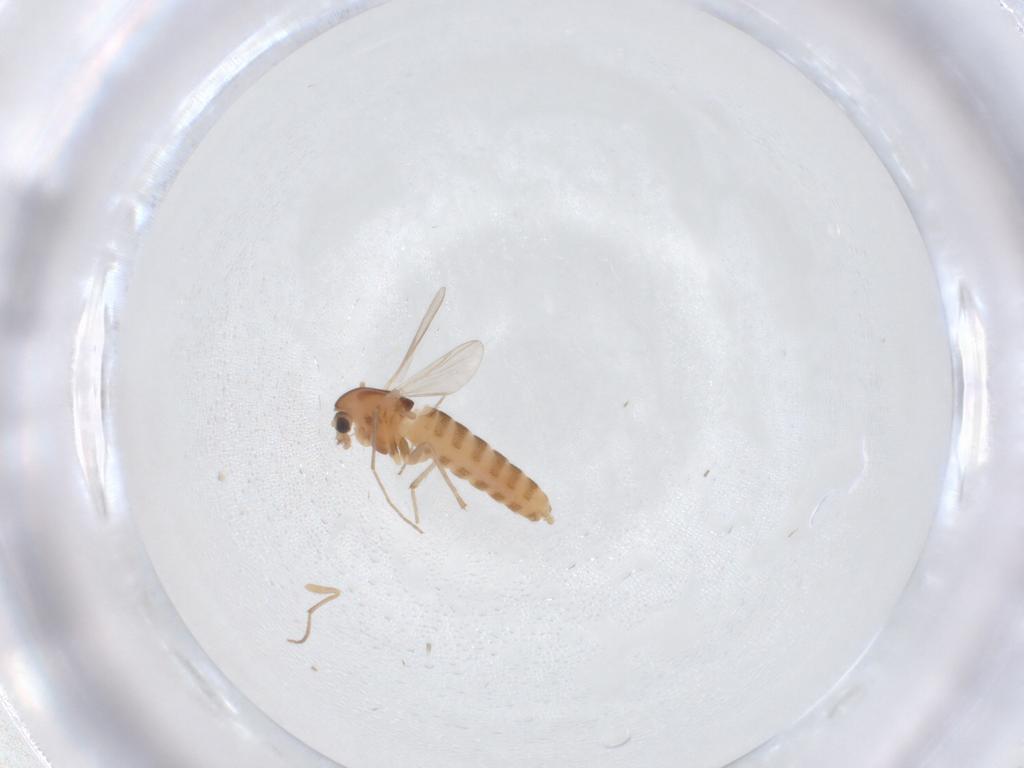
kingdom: Animalia
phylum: Arthropoda
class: Insecta
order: Diptera
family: Chironomidae
